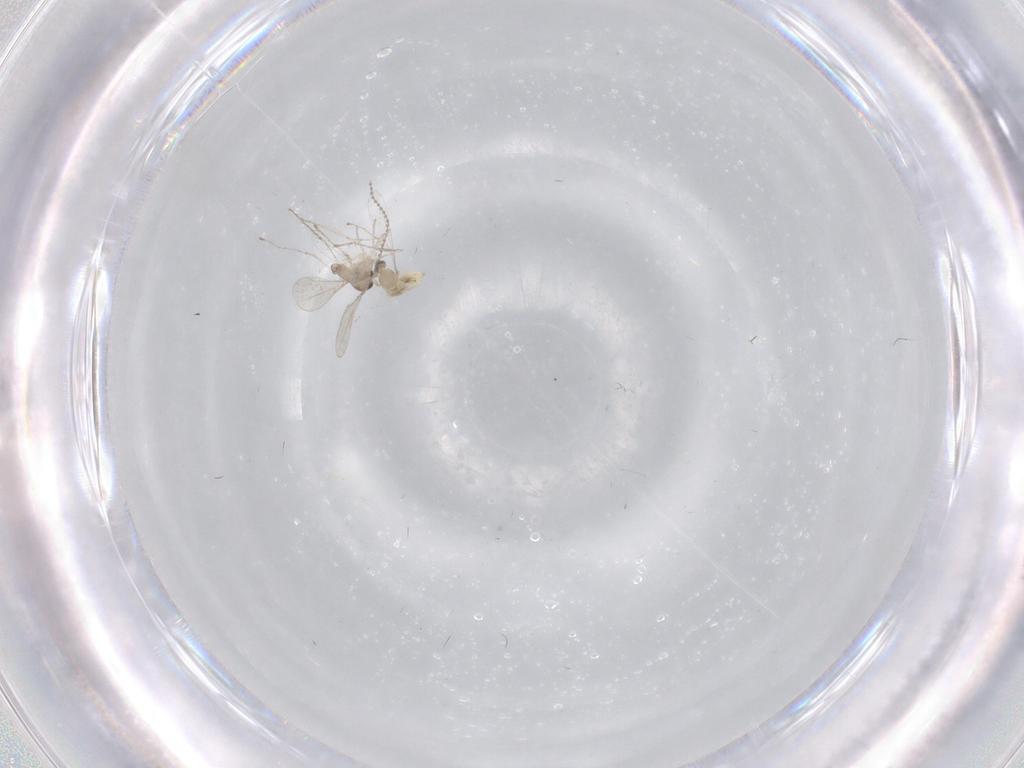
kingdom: Animalia
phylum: Arthropoda
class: Insecta
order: Diptera
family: Cecidomyiidae
